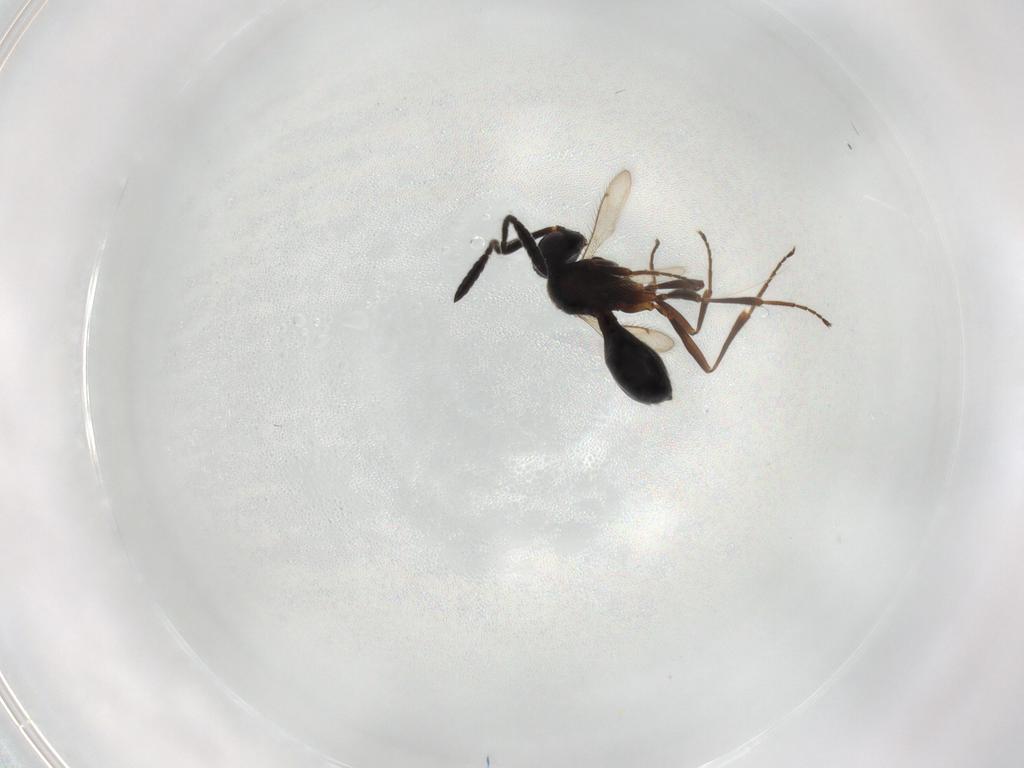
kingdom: Animalia
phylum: Arthropoda
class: Insecta
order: Hymenoptera
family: Scelionidae
